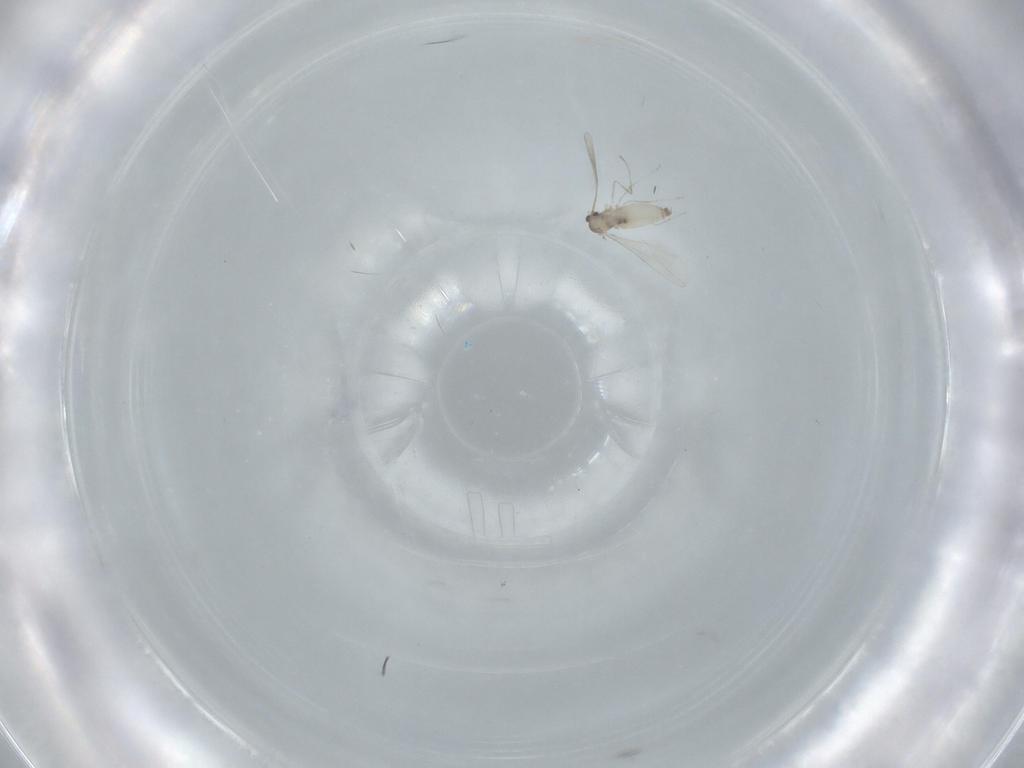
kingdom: Animalia
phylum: Arthropoda
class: Insecta
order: Diptera
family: Cecidomyiidae
